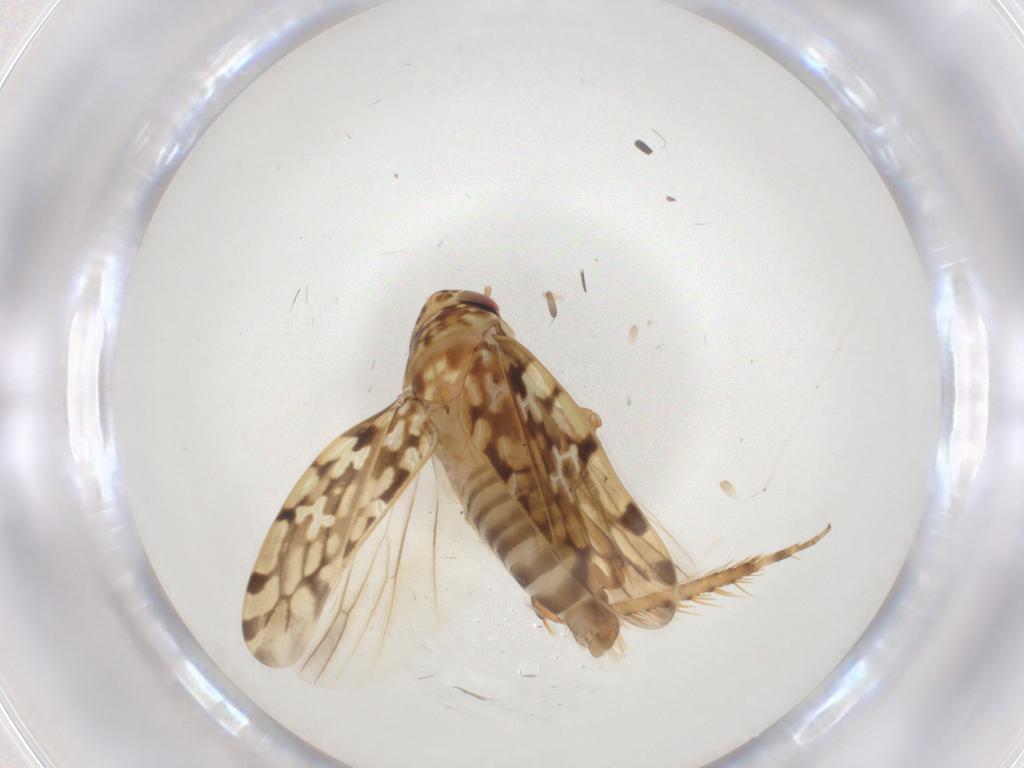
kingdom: Animalia
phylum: Arthropoda
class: Insecta
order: Hemiptera
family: Cicadellidae
